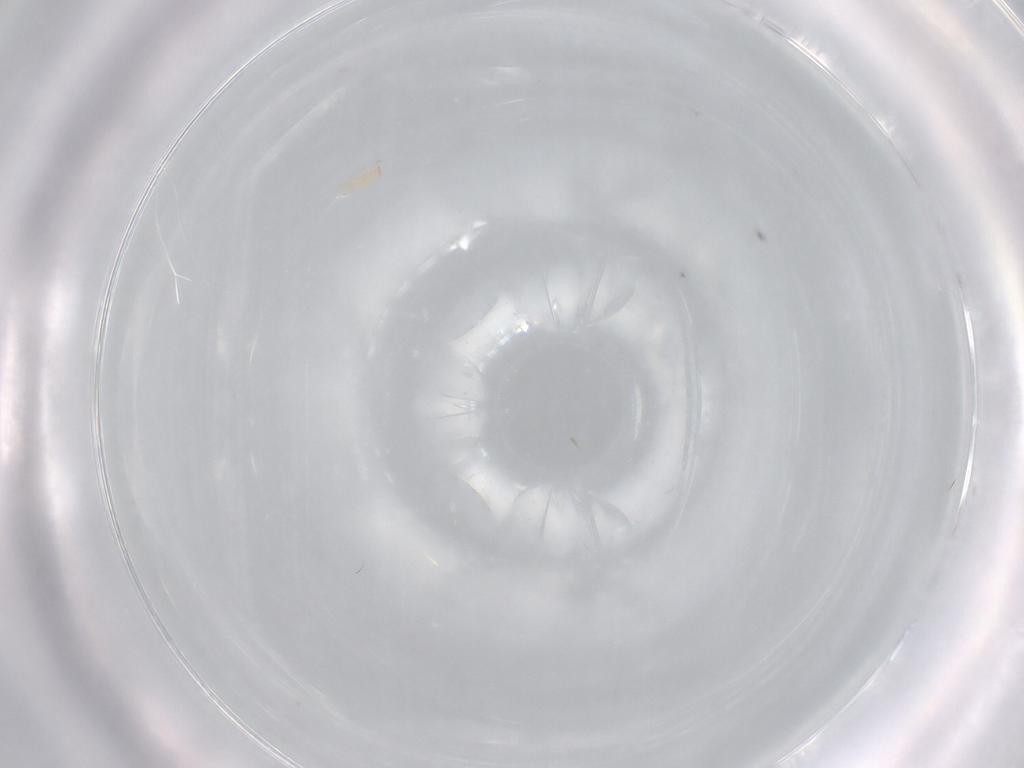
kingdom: Animalia
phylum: Arthropoda
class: Arachnida
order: Mesostigmata
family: Digamasellidae
